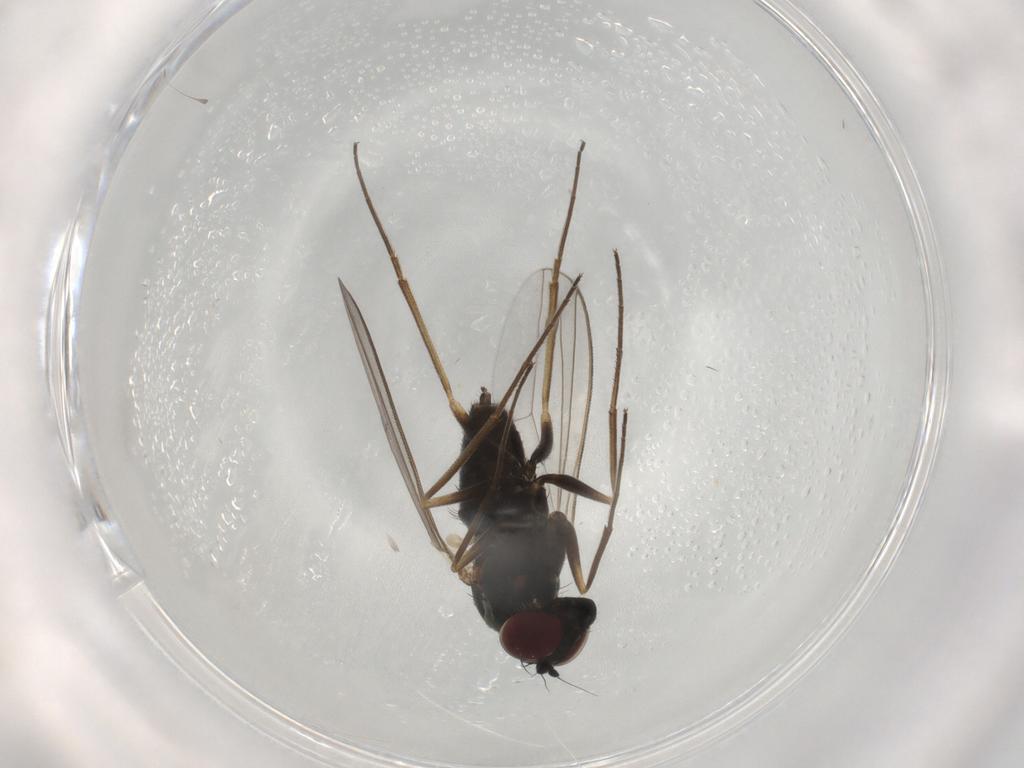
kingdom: Animalia
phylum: Arthropoda
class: Insecta
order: Diptera
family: Dolichopodidae
